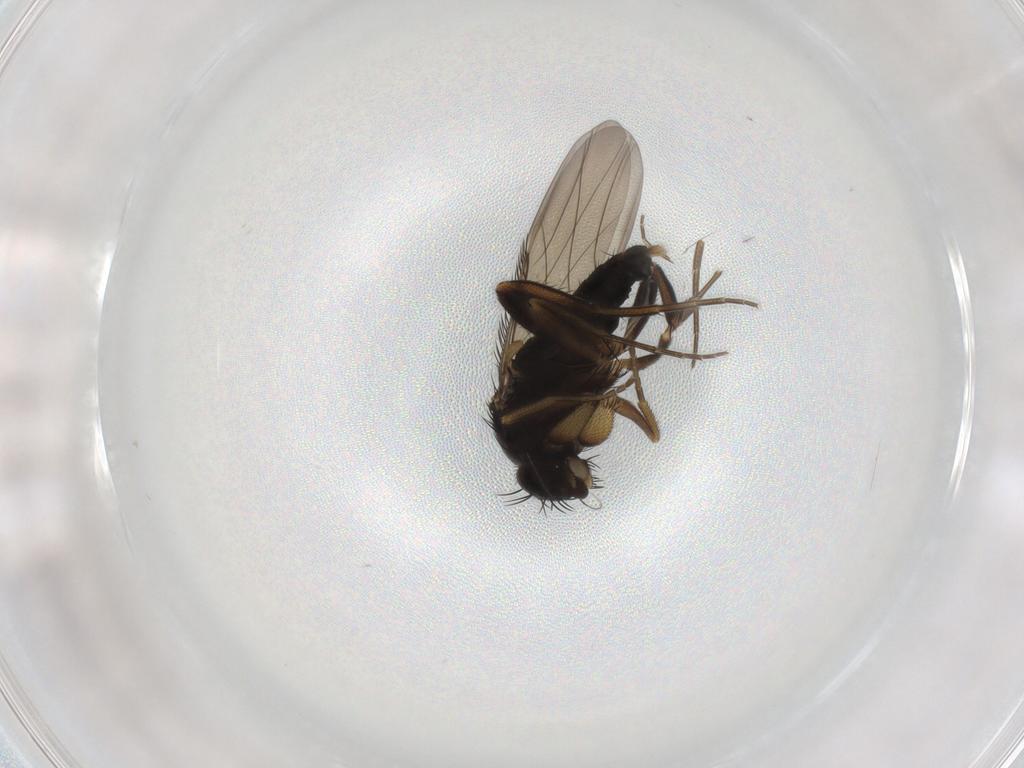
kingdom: Animalia
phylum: Arthropoda
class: Insecta
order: Diptera
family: Phoridae
